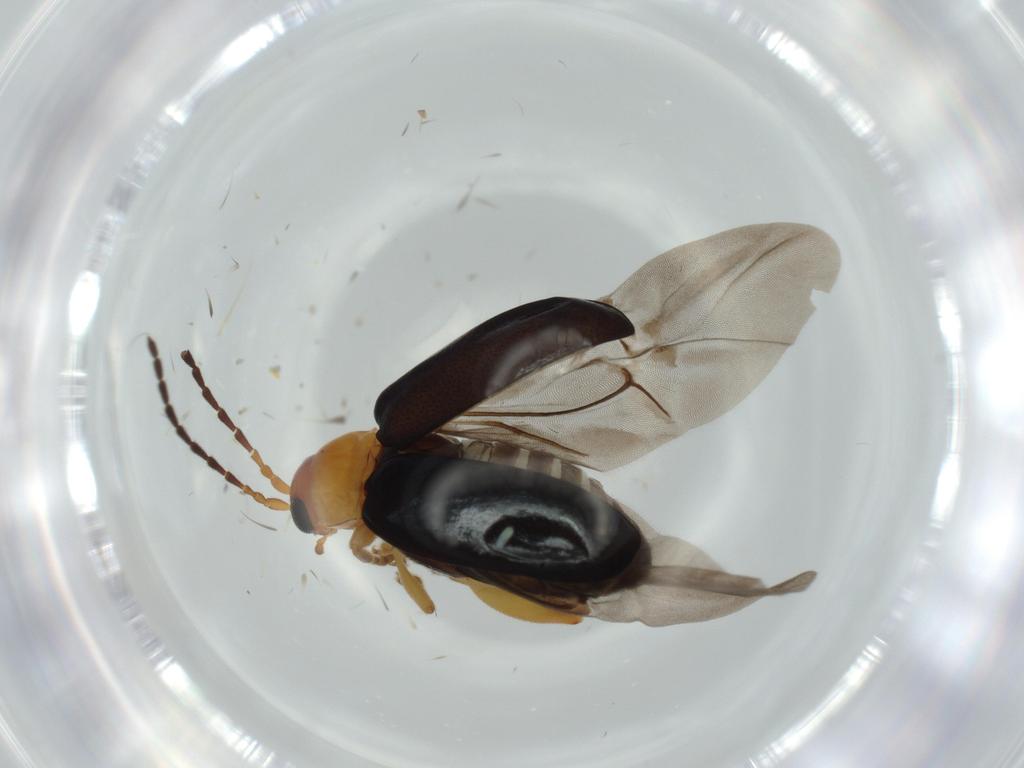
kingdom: Animalia
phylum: Arthropoda
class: Insecta
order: Coleoptera
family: Chrysomelidae
